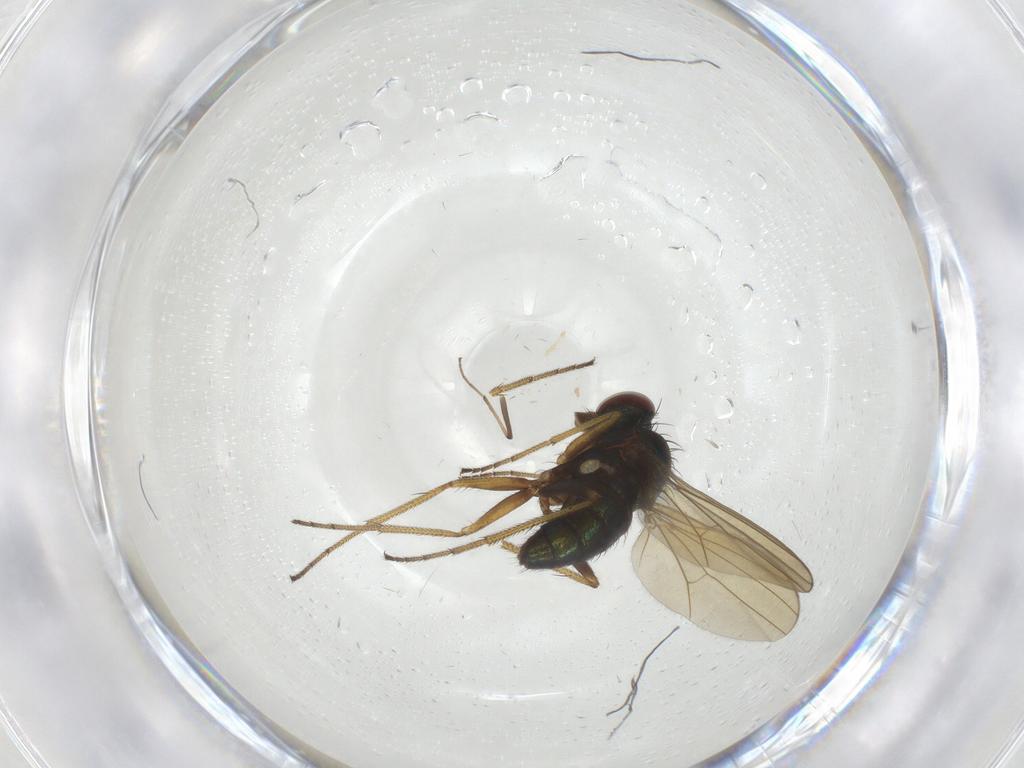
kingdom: Animalia
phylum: Arthropoda
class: Insecta
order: Diptera
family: Dolichopodidae
